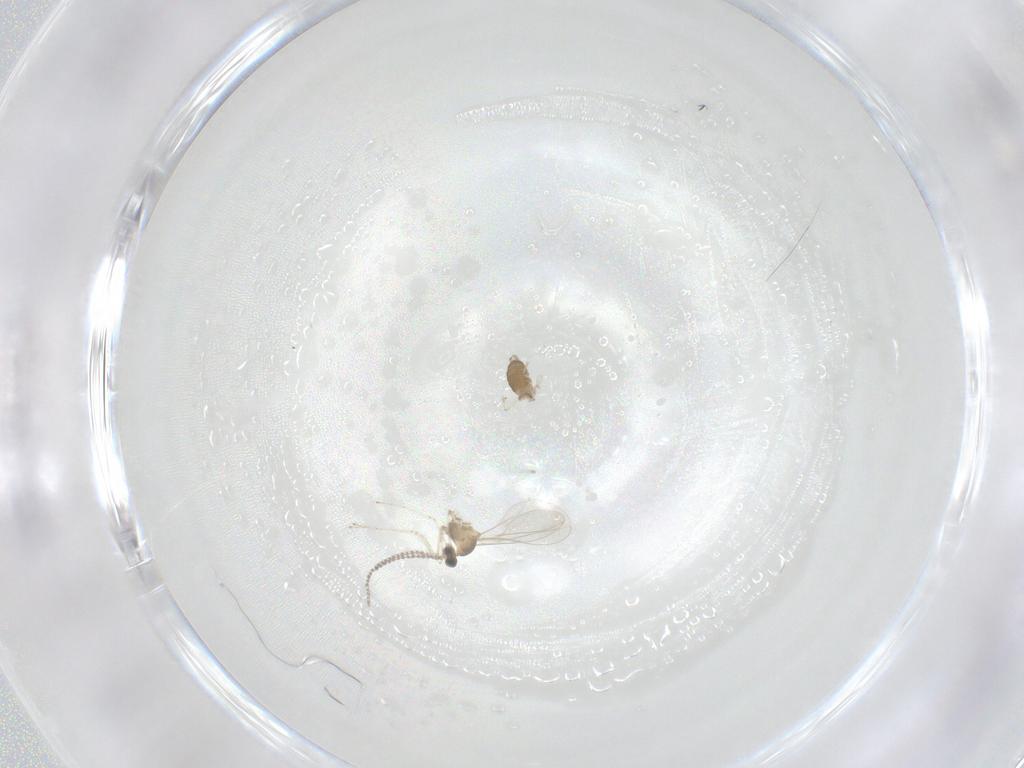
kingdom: Animalia
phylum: Arthropoda
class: Insecta
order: Diptera
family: Cecidomyiidae
